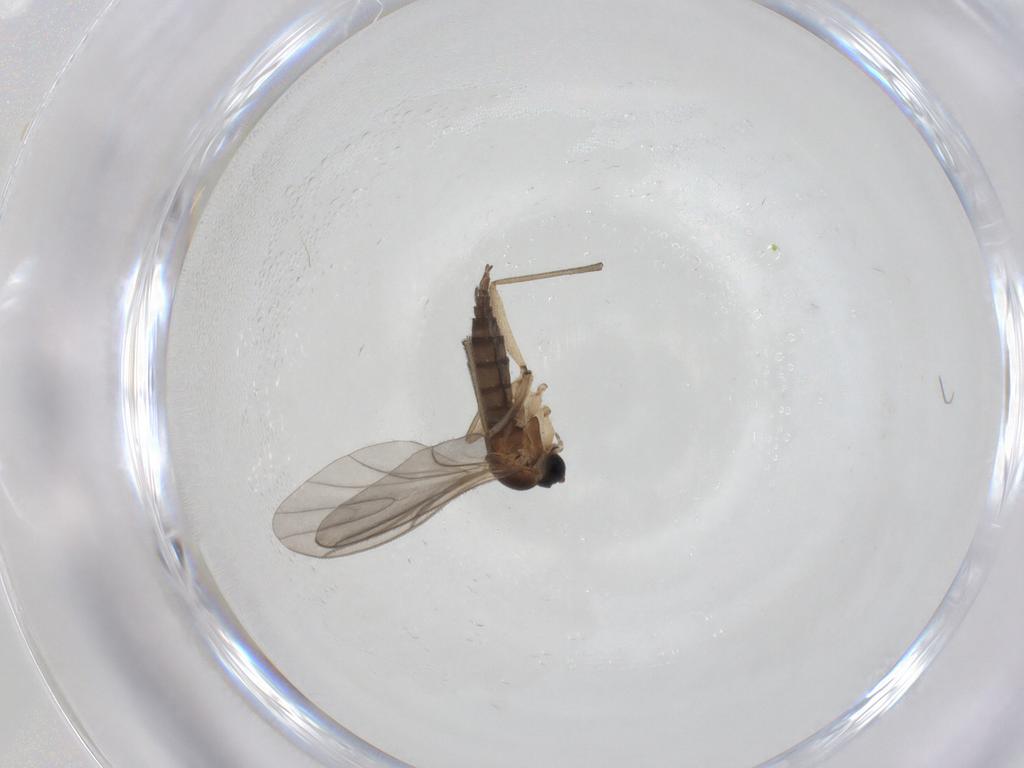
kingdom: Animalia
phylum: Arthropoda
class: Insecta
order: Diptera
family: Sciaridae
